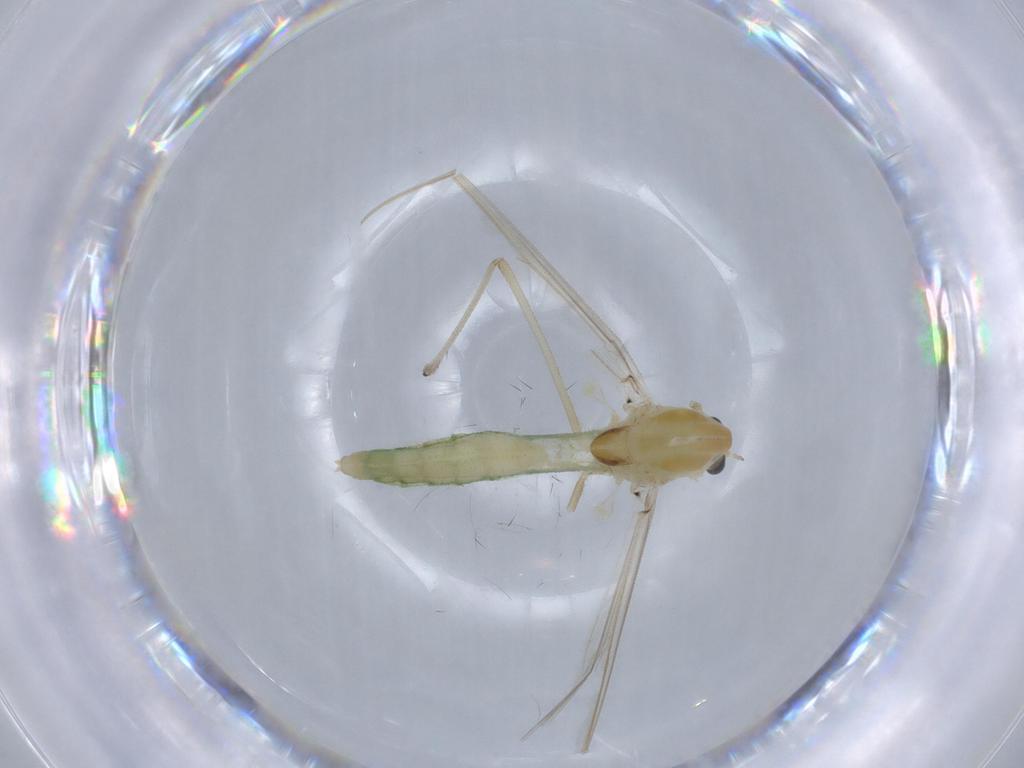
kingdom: Animalia
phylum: Arthropoda
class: Insecta
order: Diptera
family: Chironomidae
